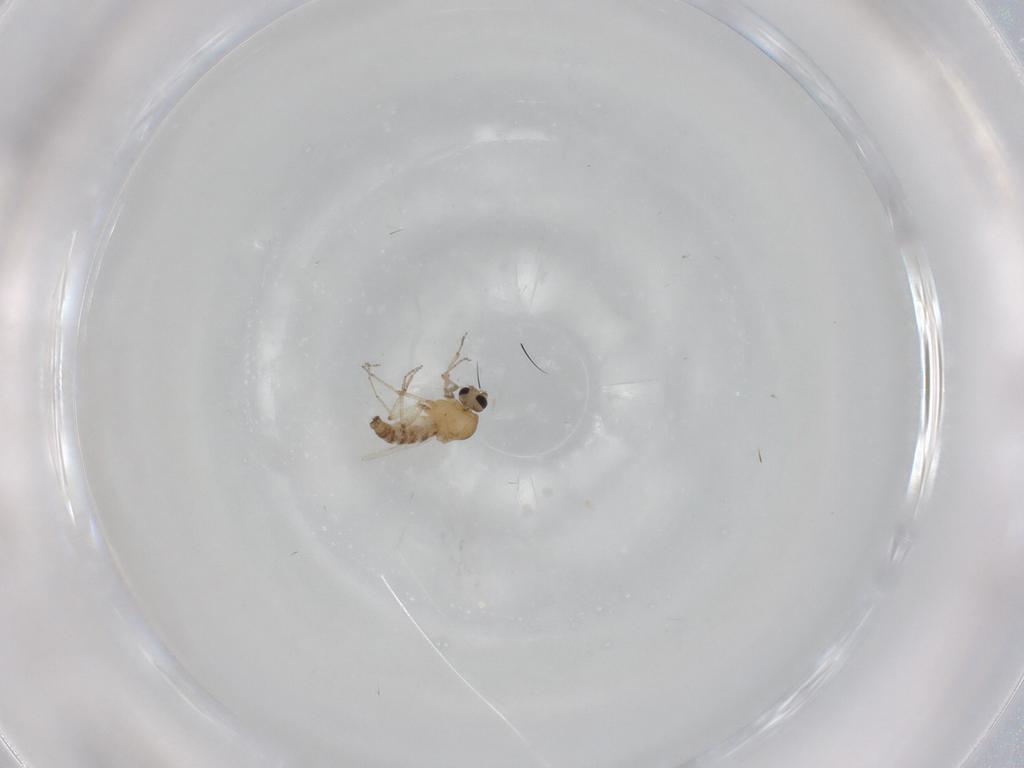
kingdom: Animalia
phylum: Arthropoda
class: Insecta
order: Diptera
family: Ceratopogonidae
